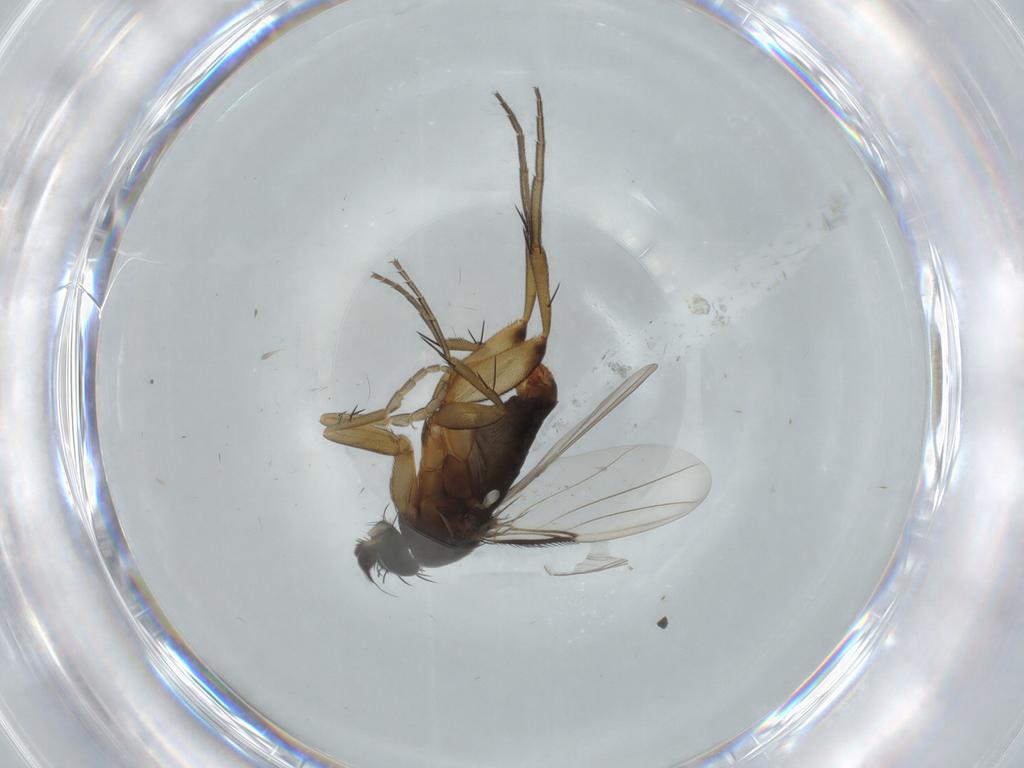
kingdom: Animalia
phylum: Arthropoda
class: Insecta
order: Diptera
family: Phoridae
